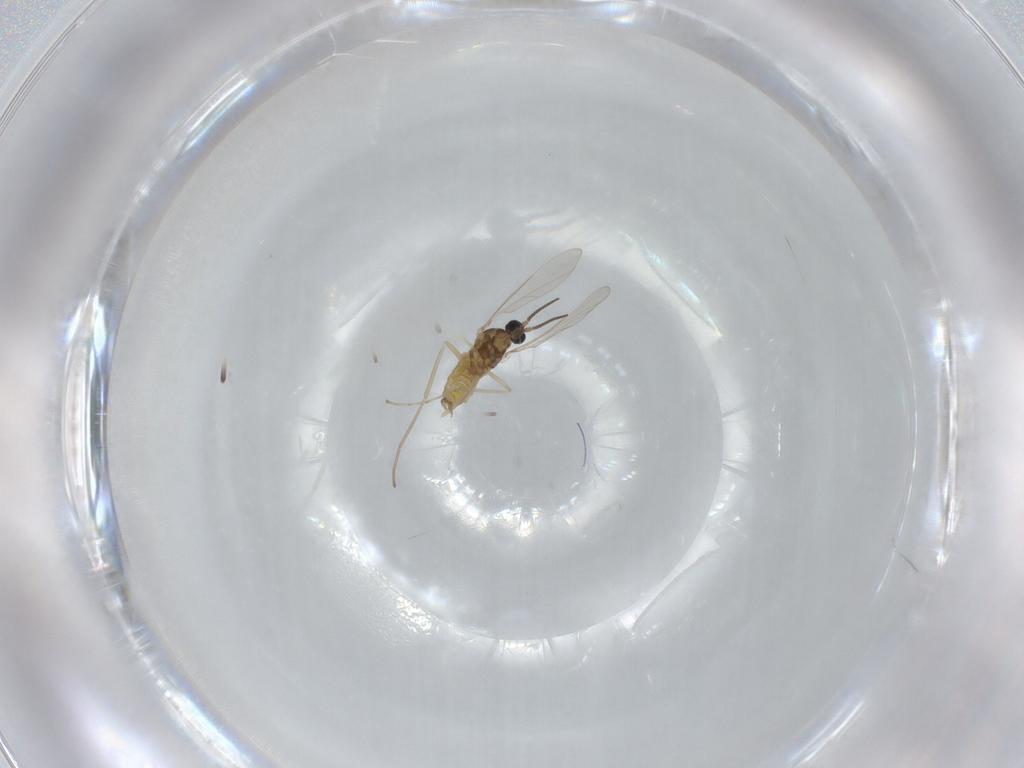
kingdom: Animalia
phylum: Arthropoda
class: Insecta
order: Diptera
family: Cecidomyiidae
